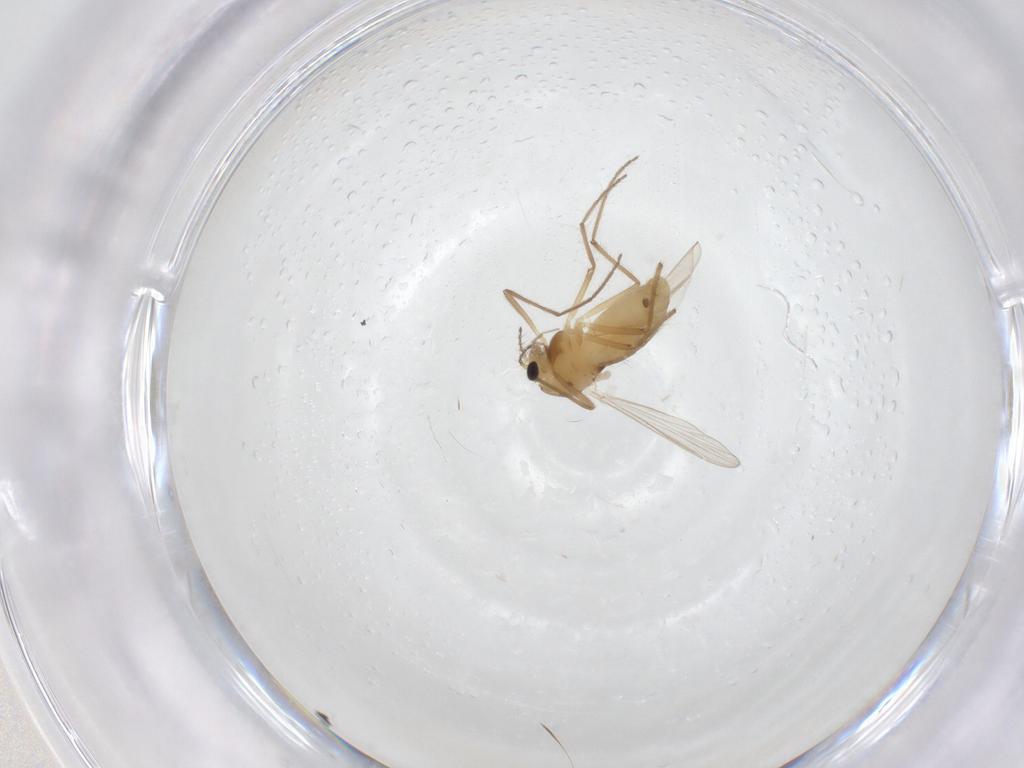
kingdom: Animalia
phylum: Arthropoda
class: Insecta
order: Diptera
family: Chironomidae
